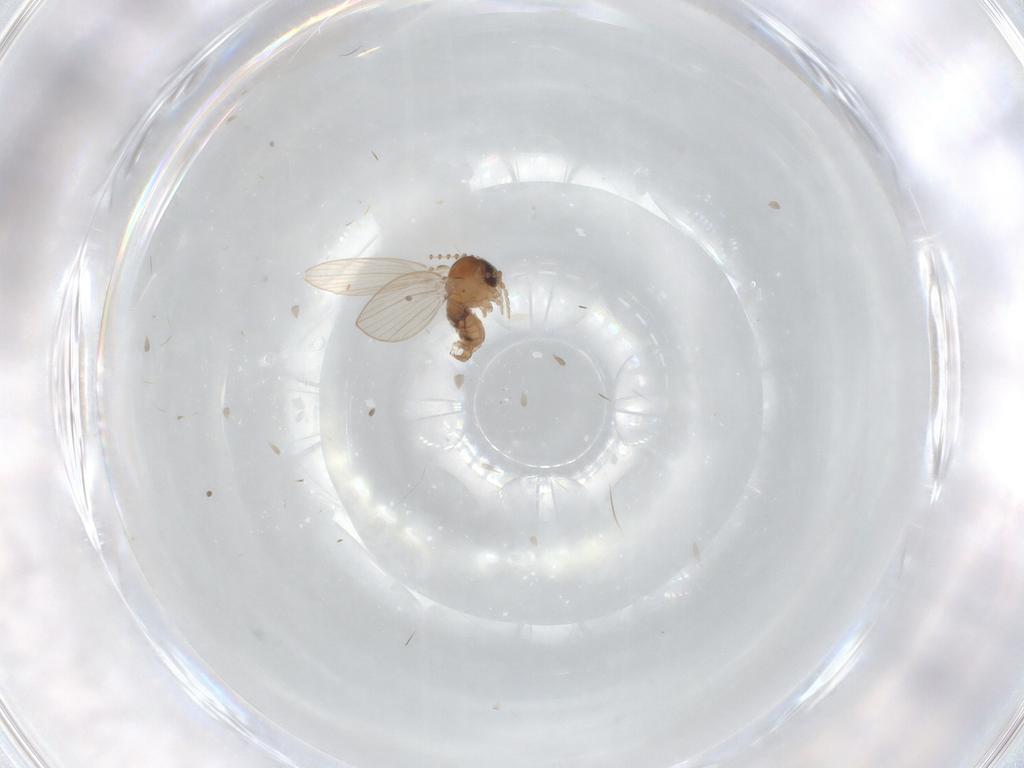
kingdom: Animalia
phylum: Arthropoda
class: Insecta
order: Diptera
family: Psychodidae
